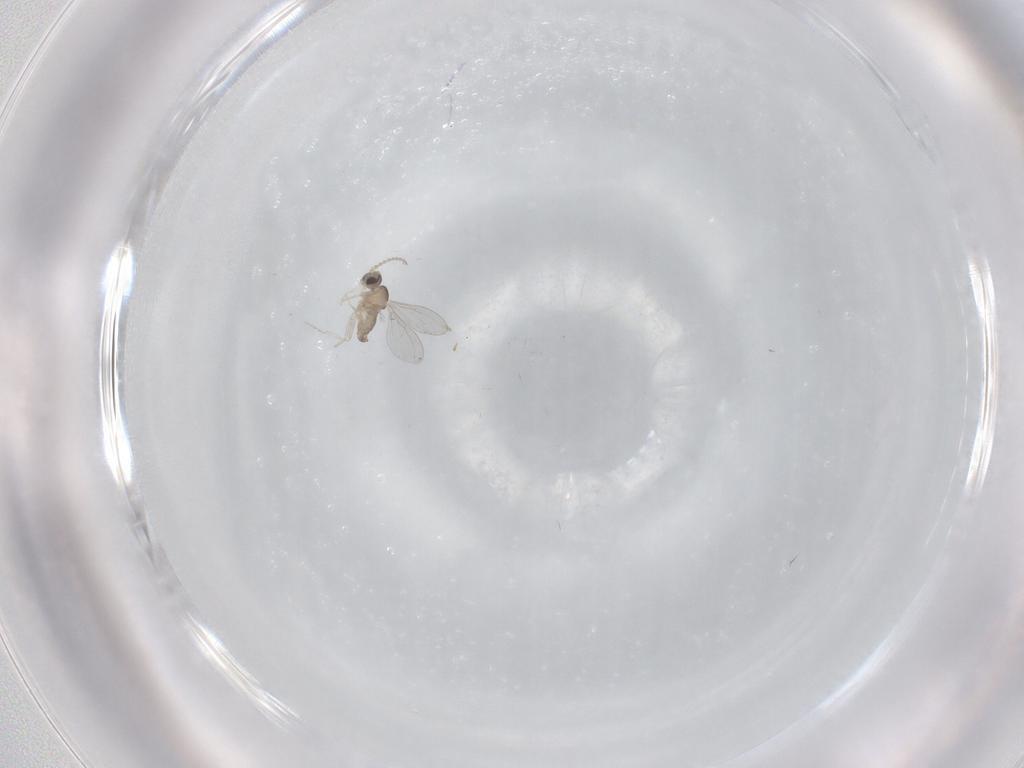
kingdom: Animalia
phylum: Arthropoda
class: Insecta
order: Diptera
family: Cecidomyiidae
